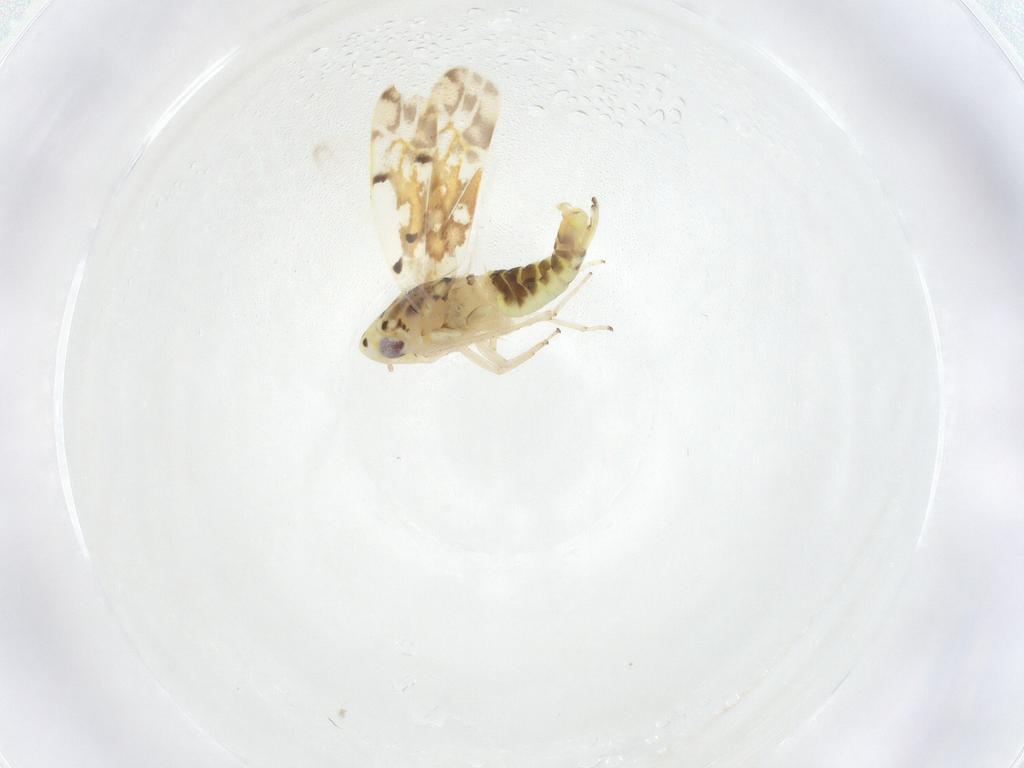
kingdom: Animalia
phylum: Arthropoda
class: Insecta
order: Hemiptera
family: Cicadellidae
